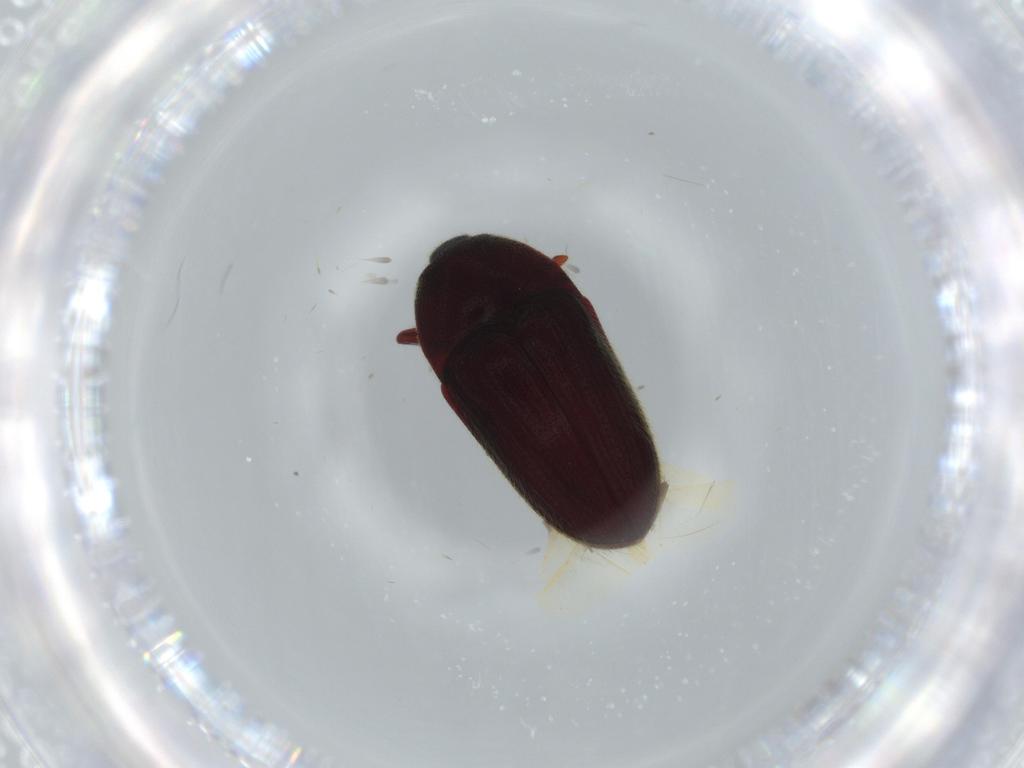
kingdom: Animalia
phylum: Arthropoda
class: Insecta
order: Coleoptera
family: Throscidae
